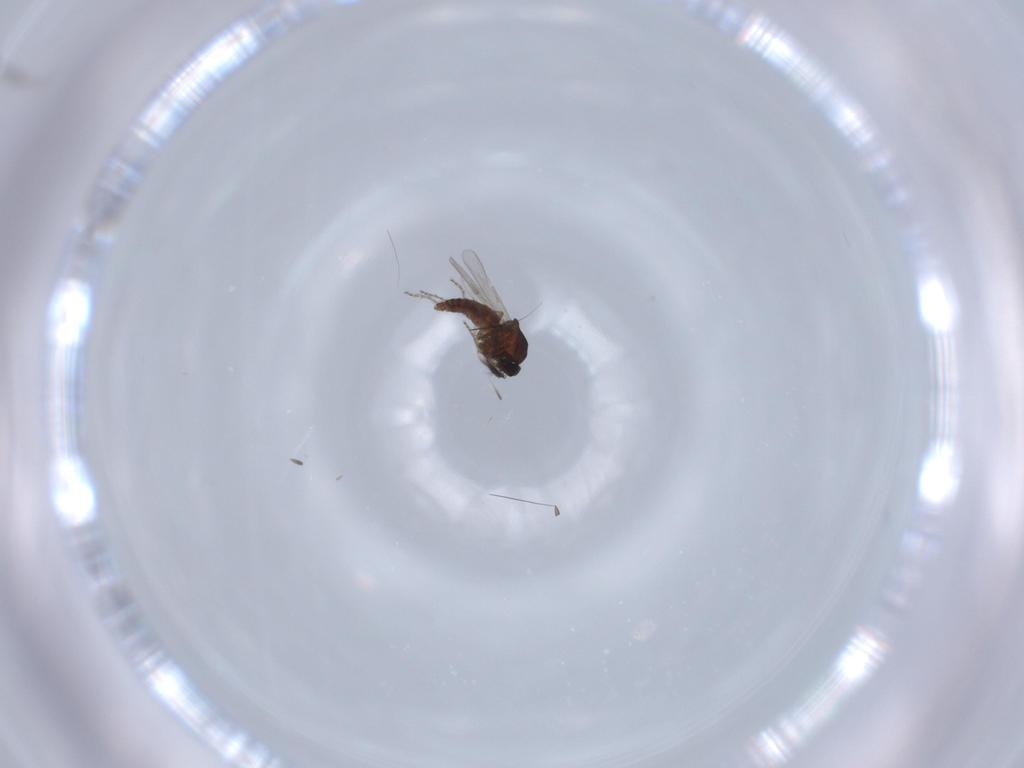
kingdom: Animalia
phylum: Arthropoda
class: Insecta
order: Diptera
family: Ceratopogonidae
